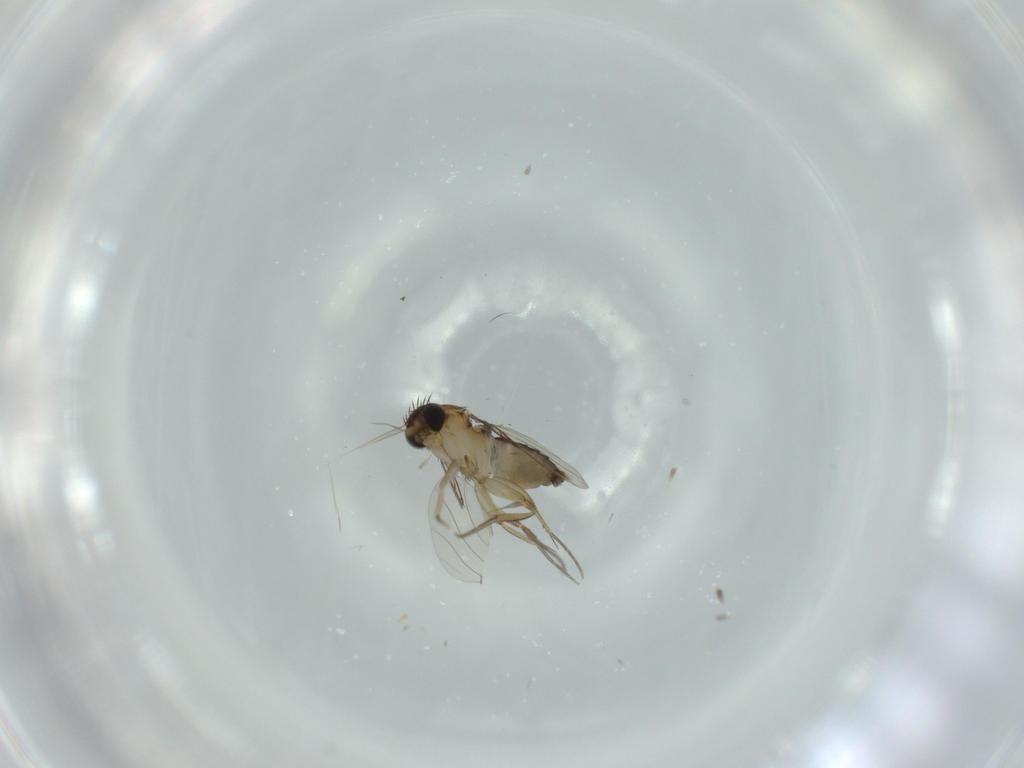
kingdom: Animalia
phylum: Arthropoda
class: Insecta
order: Diptera
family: Phoridae
